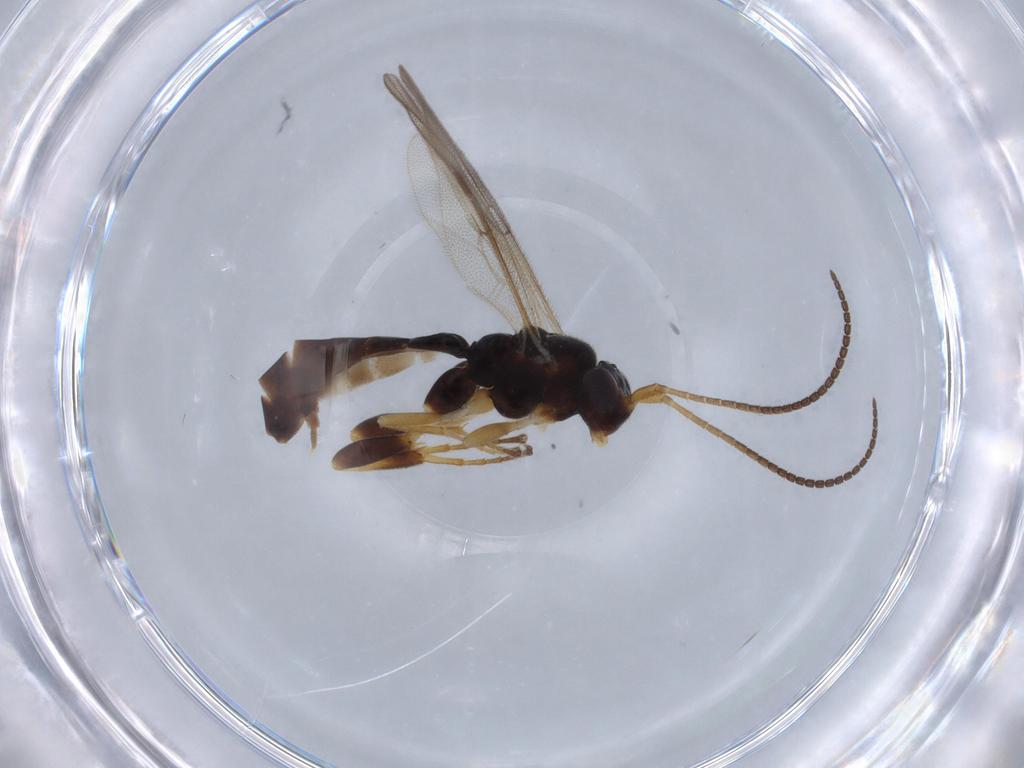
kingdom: Animalia
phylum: Arthropoda
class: Insecta
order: Hymenoptera
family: Ichneumonidae
